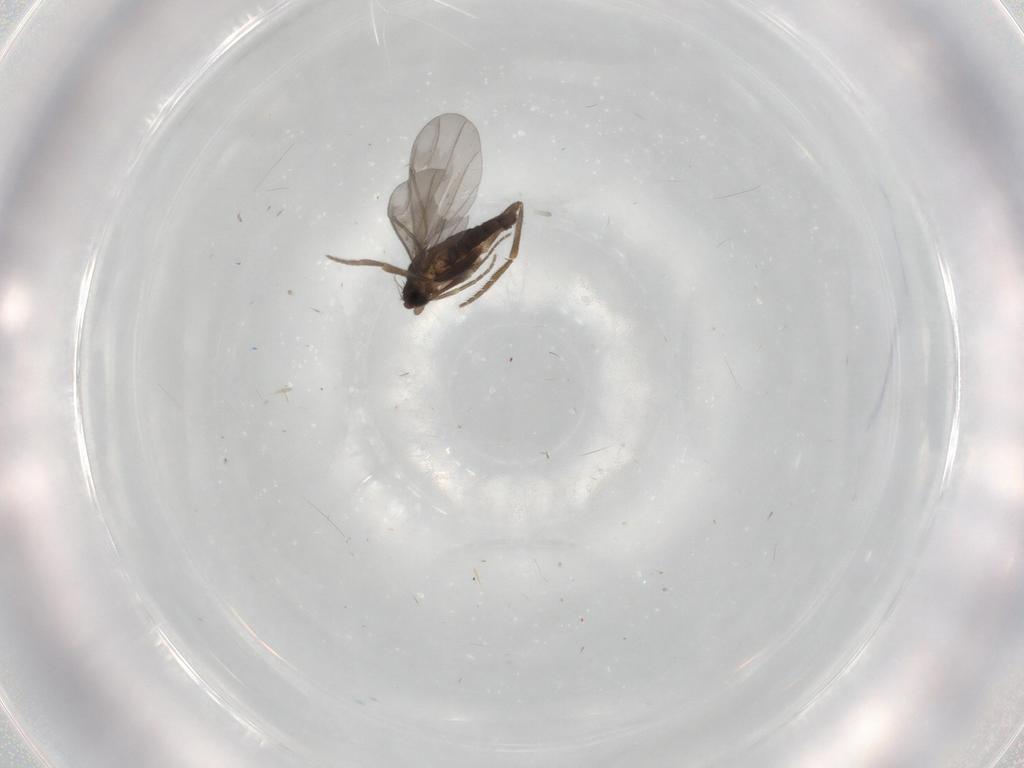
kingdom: Animalia
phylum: Arthropoda
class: Insecta
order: Diptera
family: Phoridae
